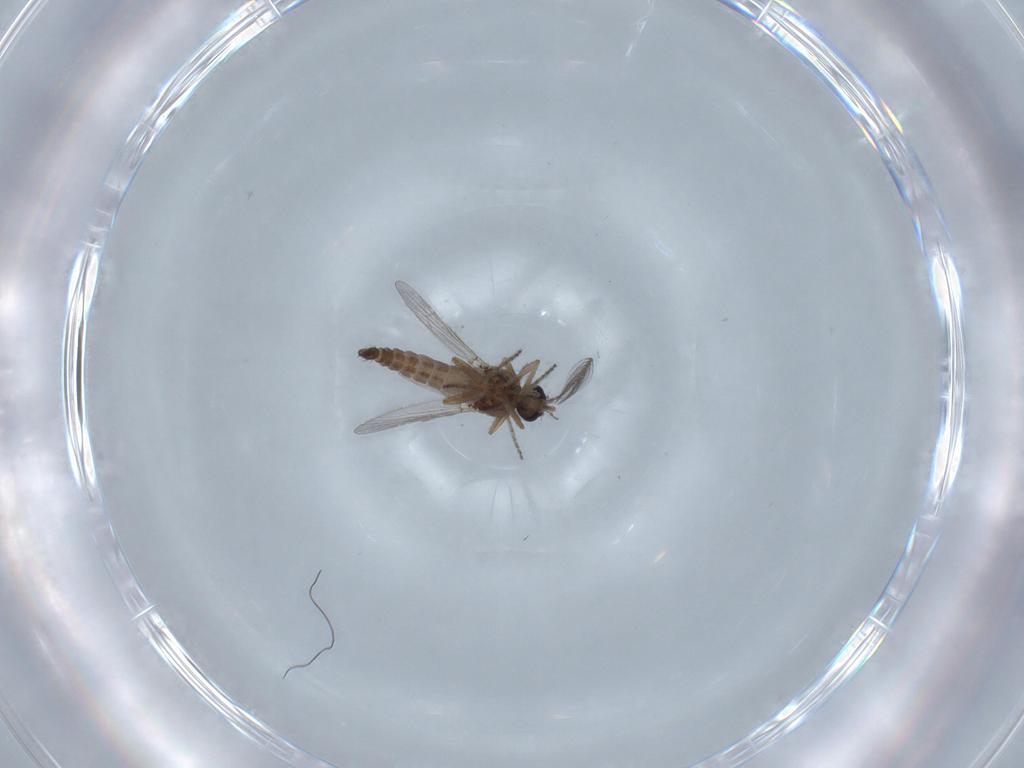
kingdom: Animalia
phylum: Arthropoda
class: Insecta
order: Diptera
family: Ceratopogonidae
